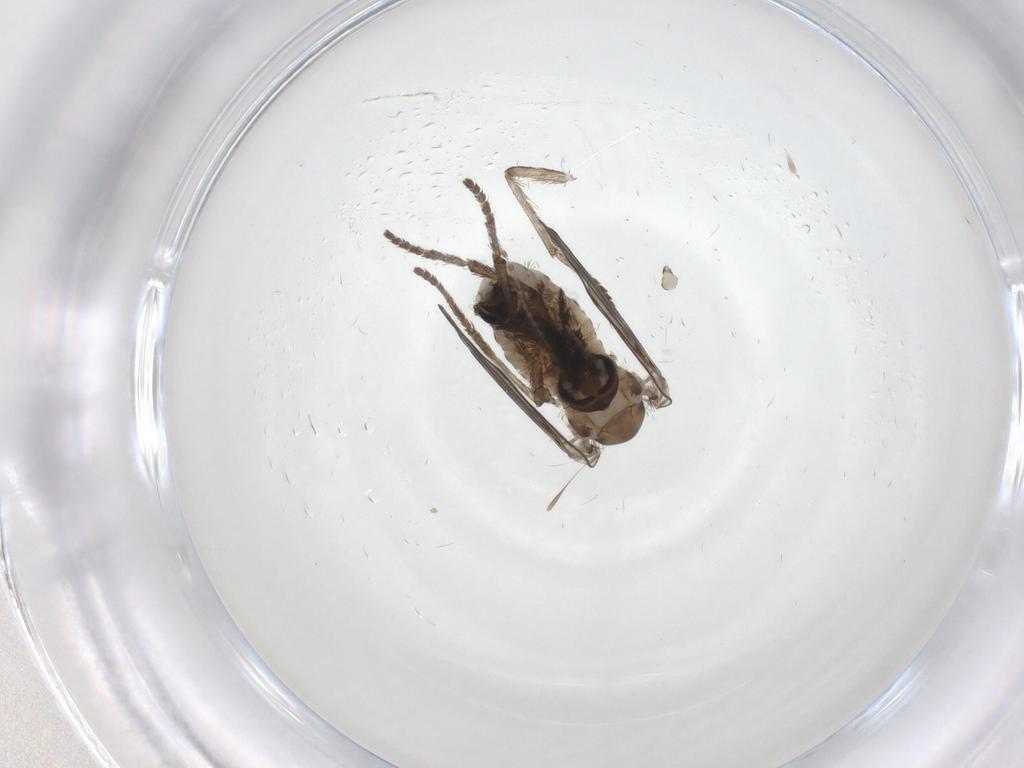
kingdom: Animalia
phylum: Arthropoda
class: Insecta
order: Diptera
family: Psychodidae
